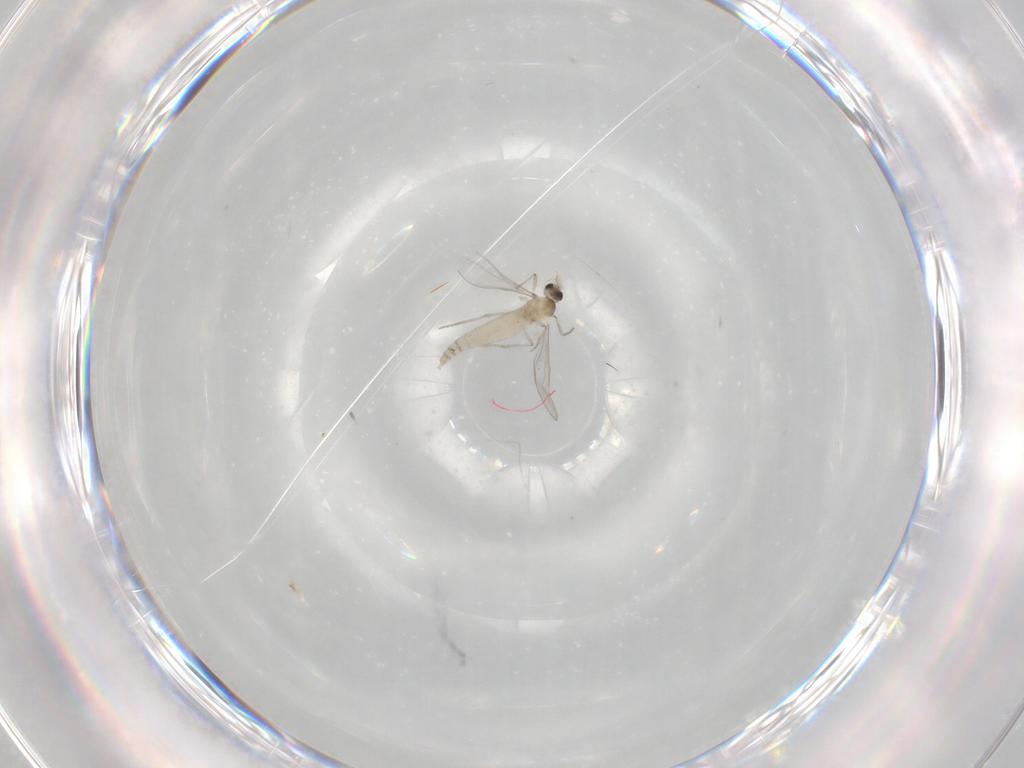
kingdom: Animalia
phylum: Arthropoda
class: Insecta
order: Diptera
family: Cecidomyiidae
